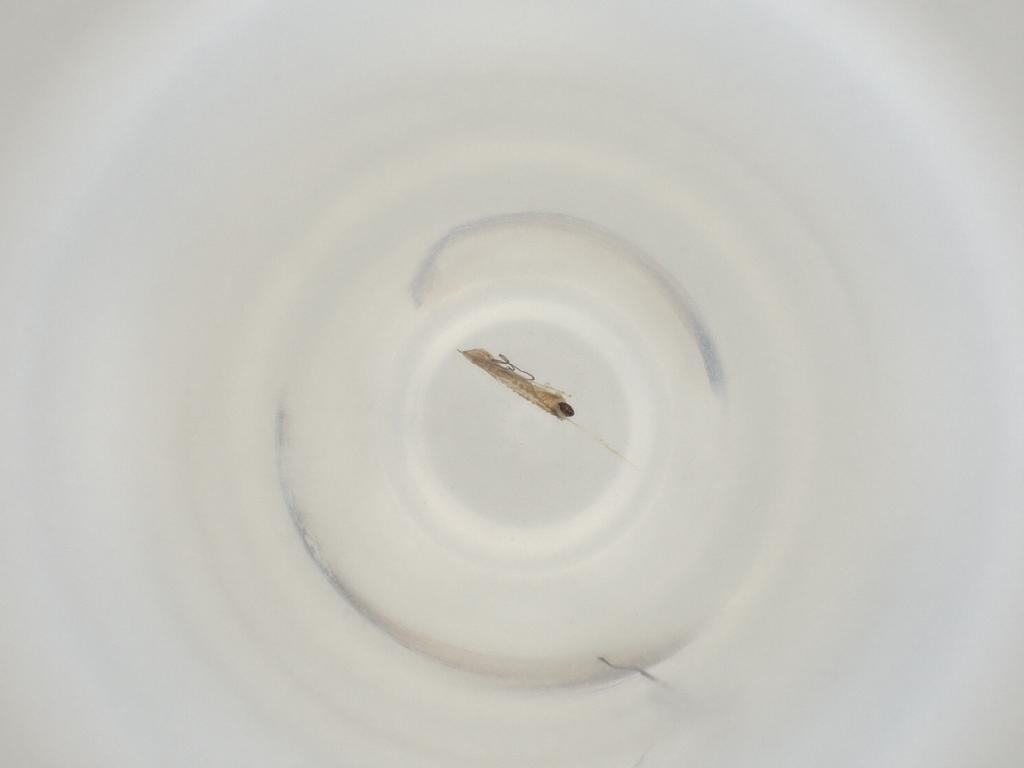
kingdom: Animalia
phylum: Arthropoda
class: Insecta
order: Diptera
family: Cecidomyiidae
